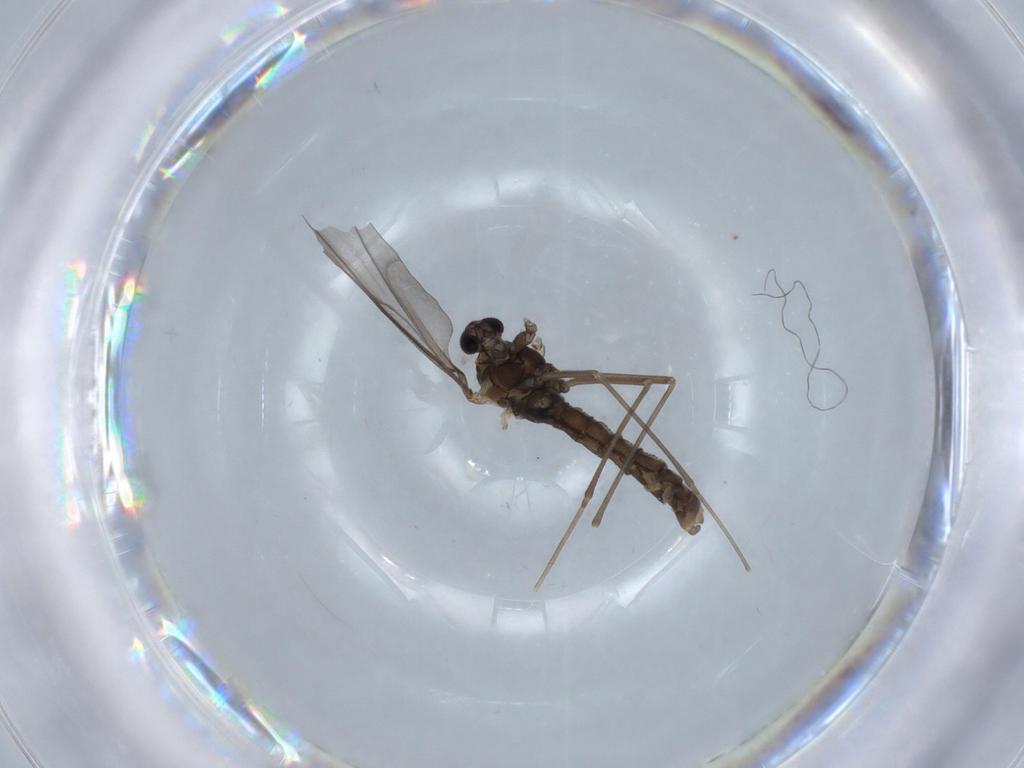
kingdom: Animalia
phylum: Arthropoda
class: Insecta
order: Diptera
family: Cecidomyiidae
